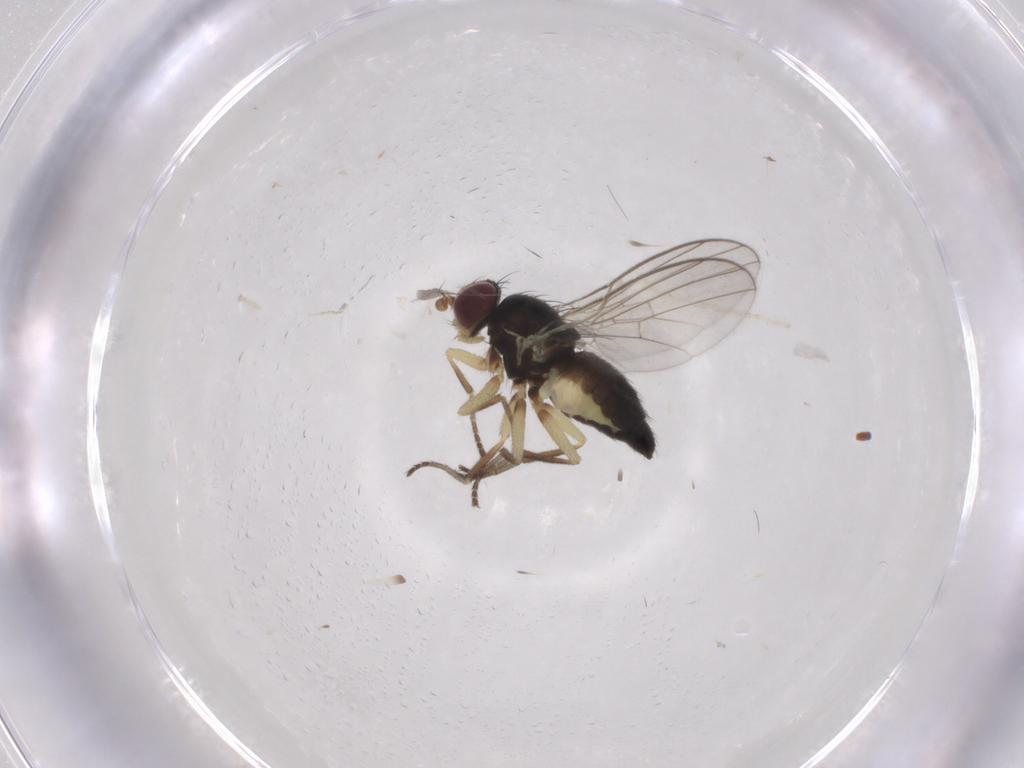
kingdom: Animalia
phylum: Arthropoda
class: Insecta
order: Diptera
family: Agromyzidae
